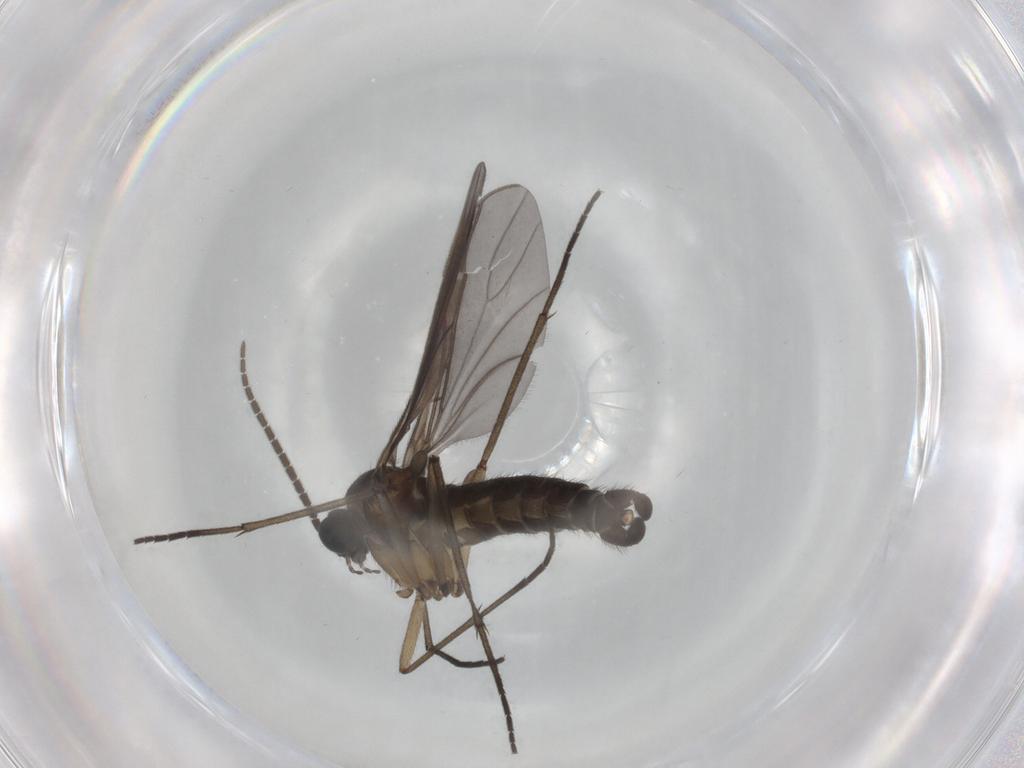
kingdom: Animalia
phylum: Arthropoda
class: Insecta
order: Diptera
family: Sciaridae
